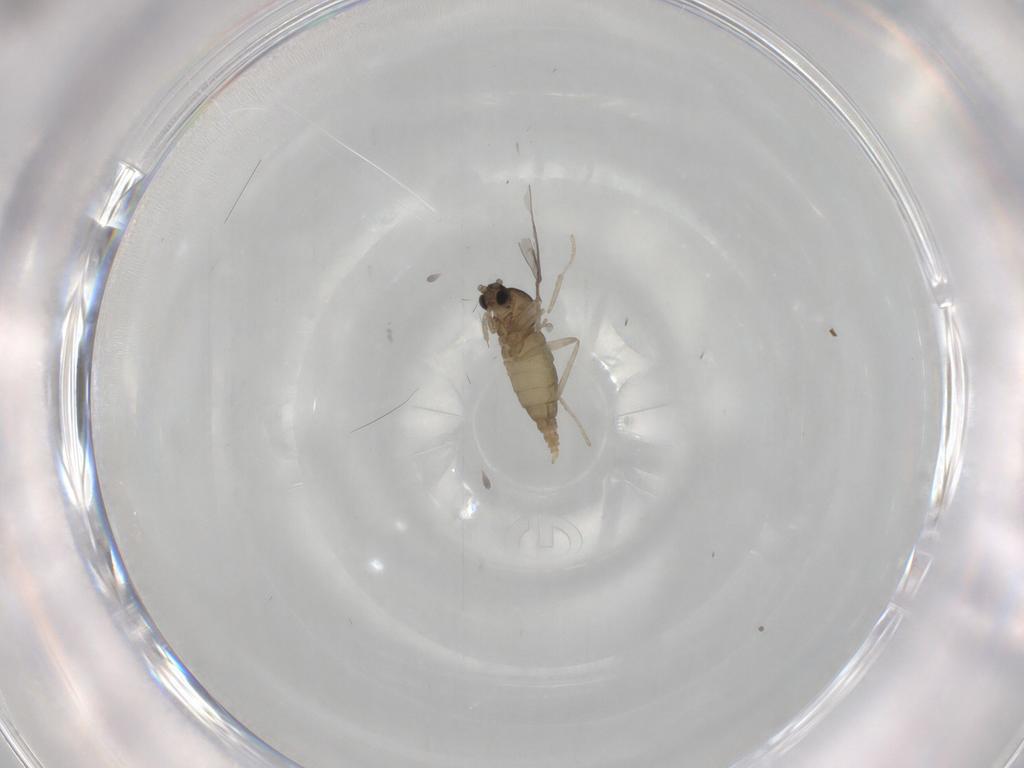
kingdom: Animalia
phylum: Arthropoda
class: Insecta
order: Diptera
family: Cecidomyiidae
